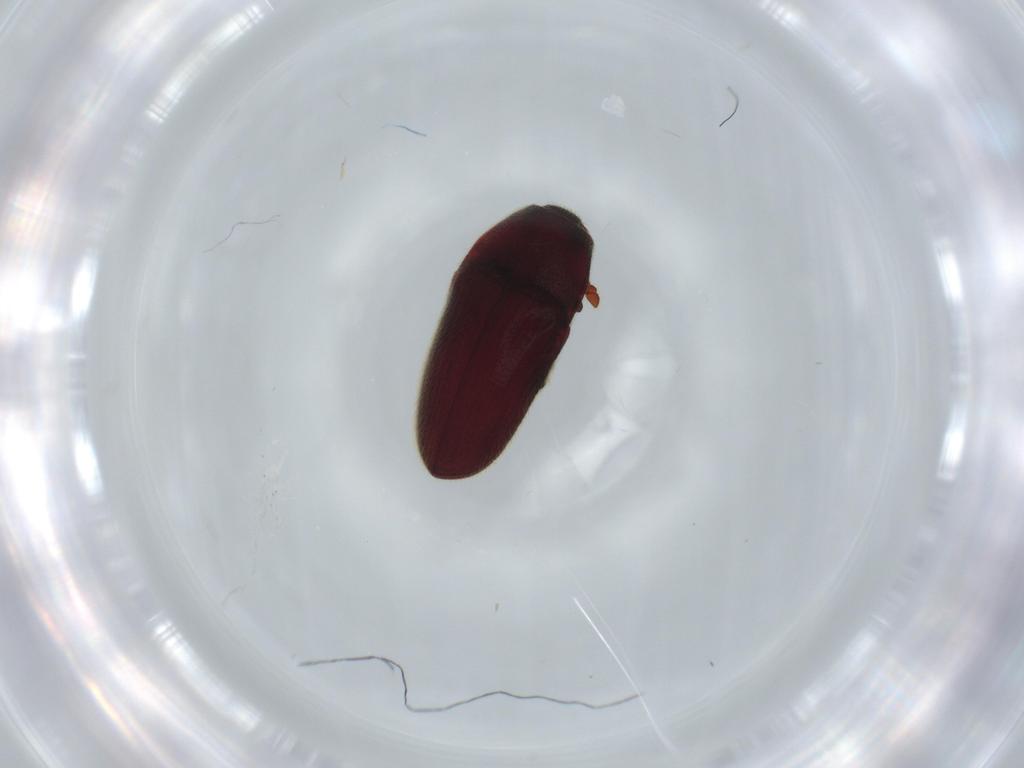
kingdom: Animalia
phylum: Arthropoda
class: Insecta
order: Coleoptera
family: Throscidae
